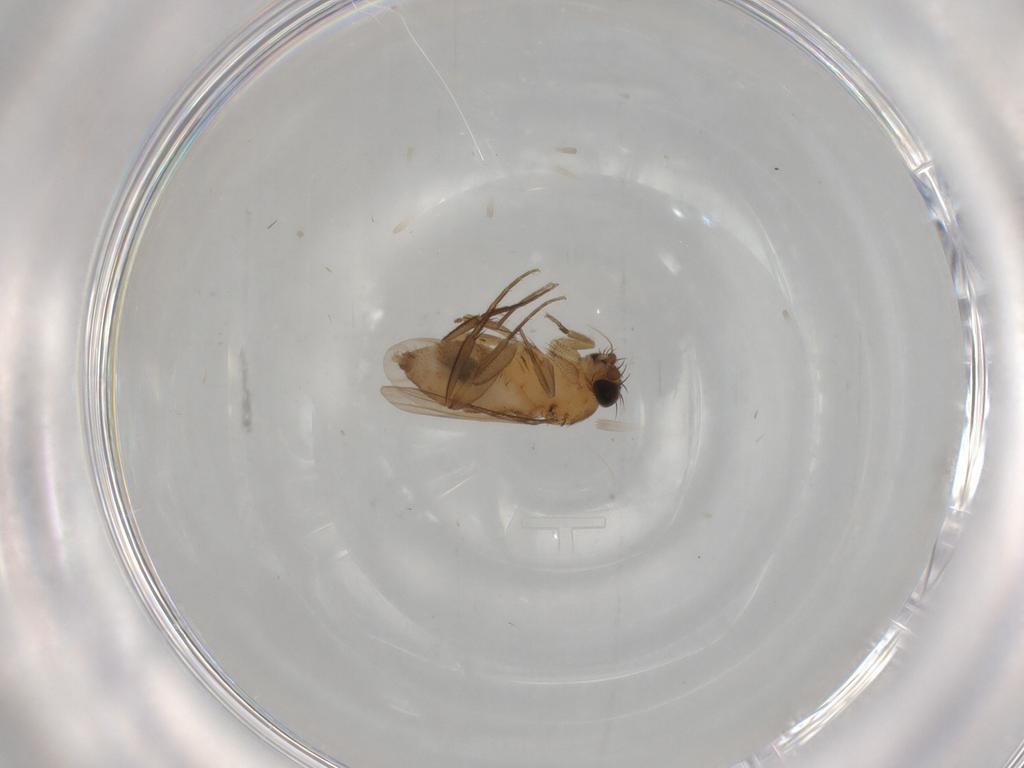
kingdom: Animalia
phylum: Arthropoda
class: Insecta
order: Diptera
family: Phoridae
